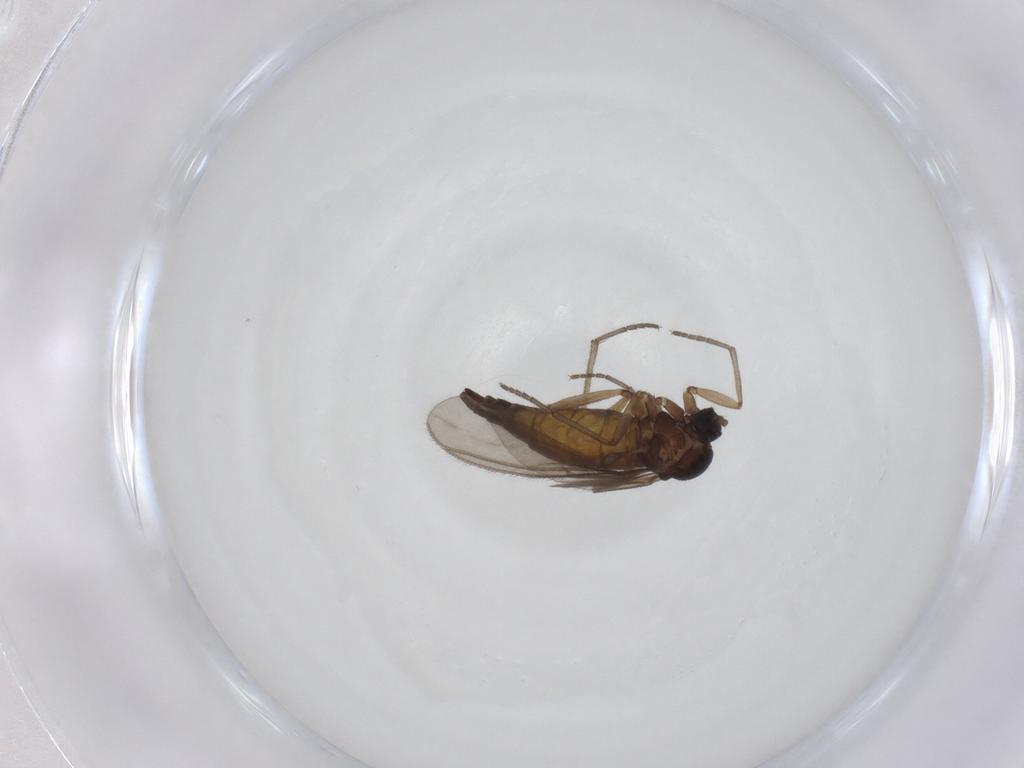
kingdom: Animalia
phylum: Arthropoda
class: Insecta
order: Diptera
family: Sciaridae
